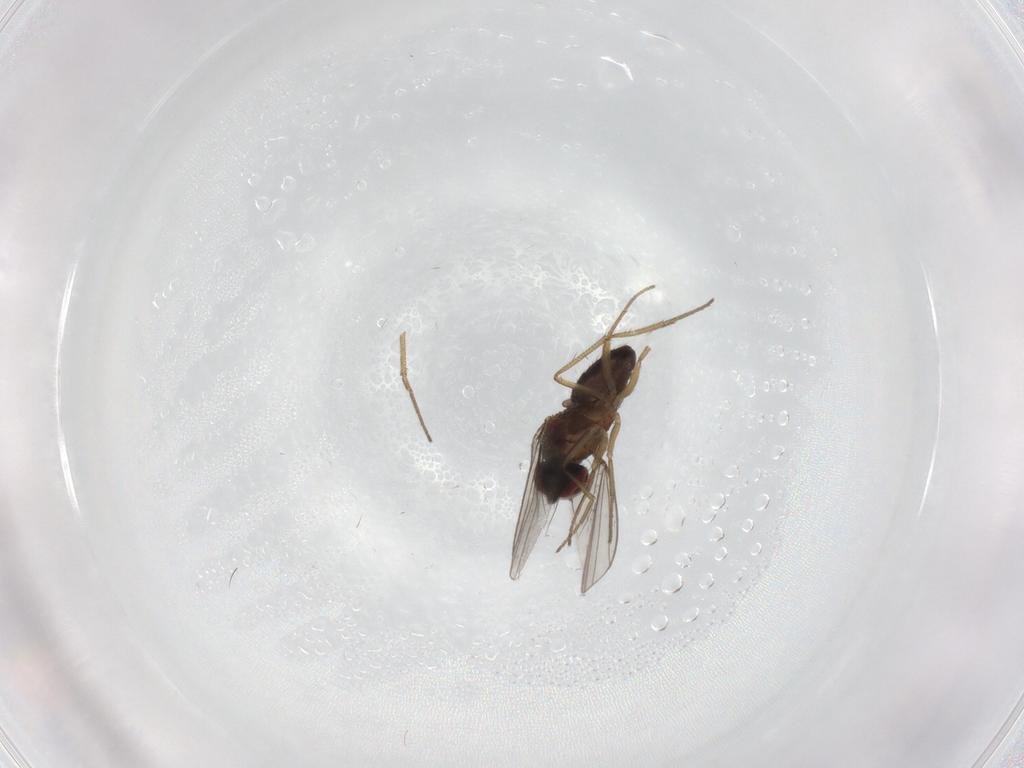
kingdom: Animalia
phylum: Arthropoda
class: Insecta
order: Diptera
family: Dolichopodidae
